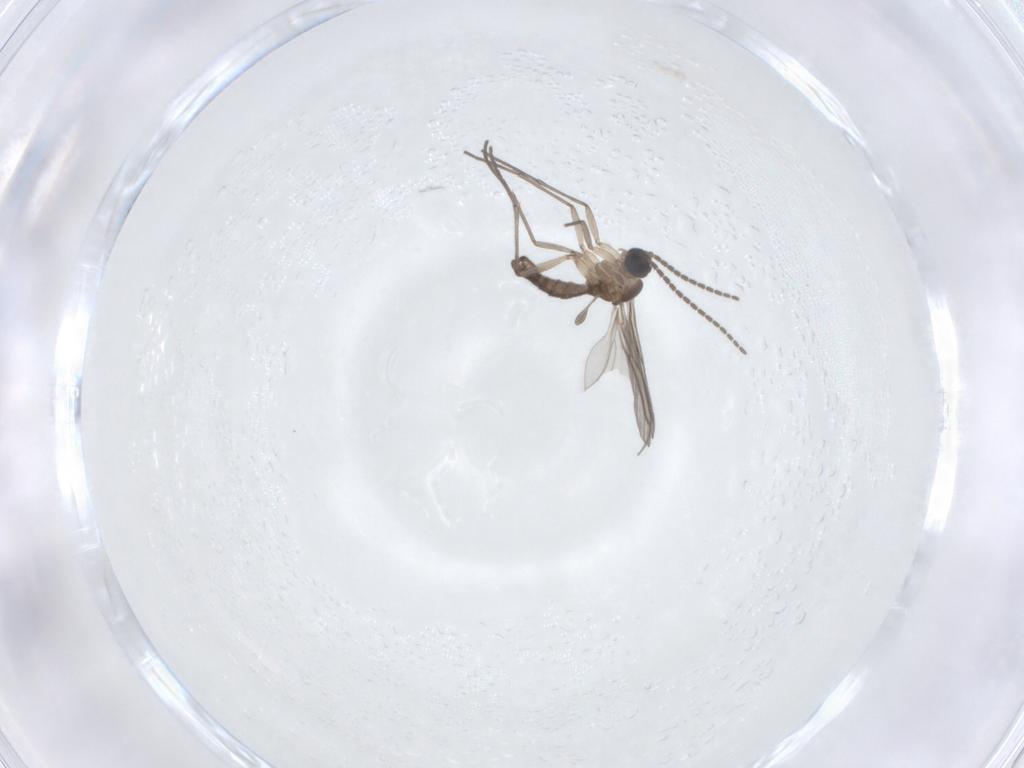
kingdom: Animalia
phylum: Arthropoda
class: Insecta
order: Diptera
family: Sciaridae
